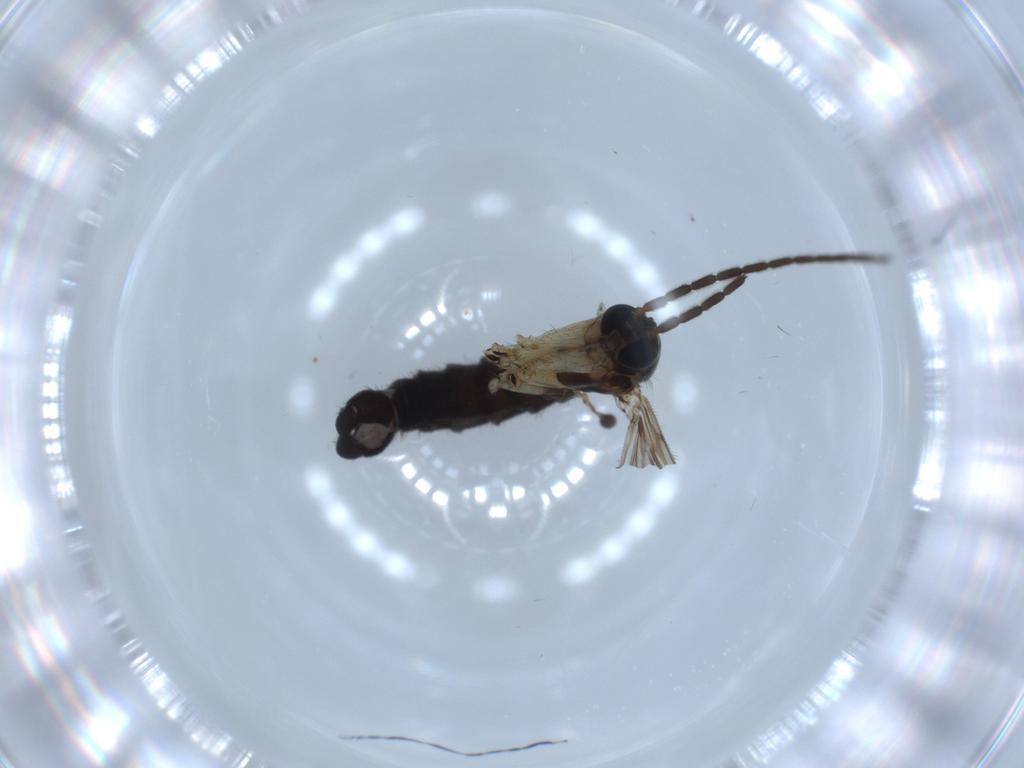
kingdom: Animalia
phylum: Arthropoda
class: Insecta
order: Diptera
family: Sciaridae
